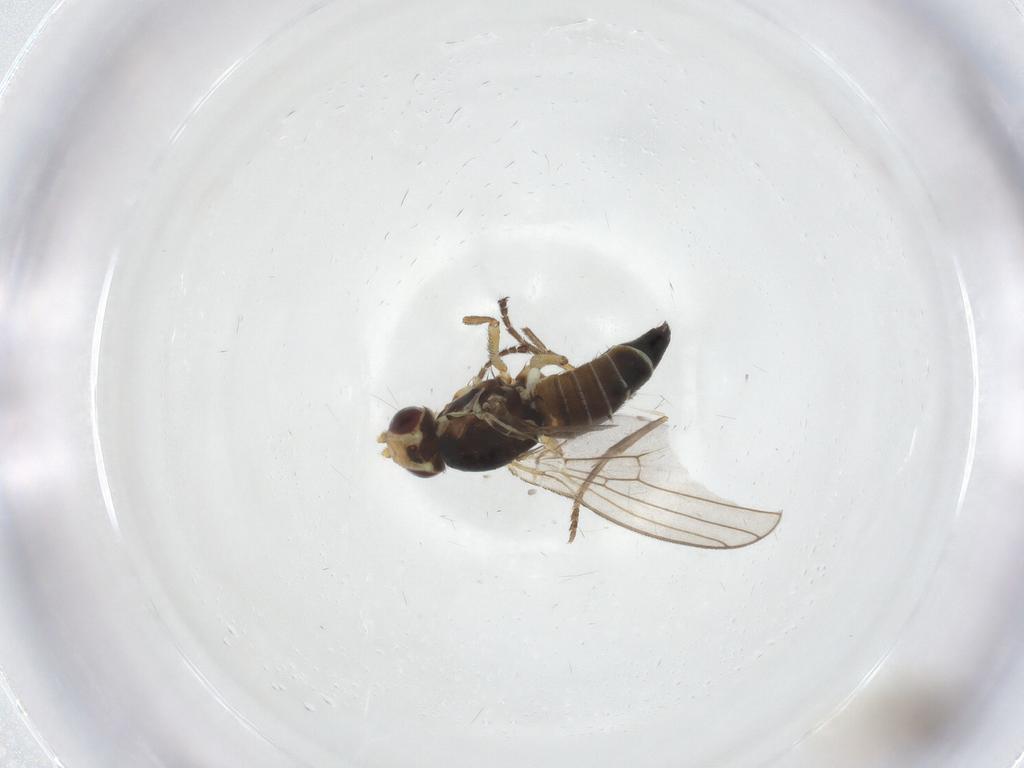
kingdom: Animalia
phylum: Arthropoda
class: Insecta
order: Diptera
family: Agromyzidae
